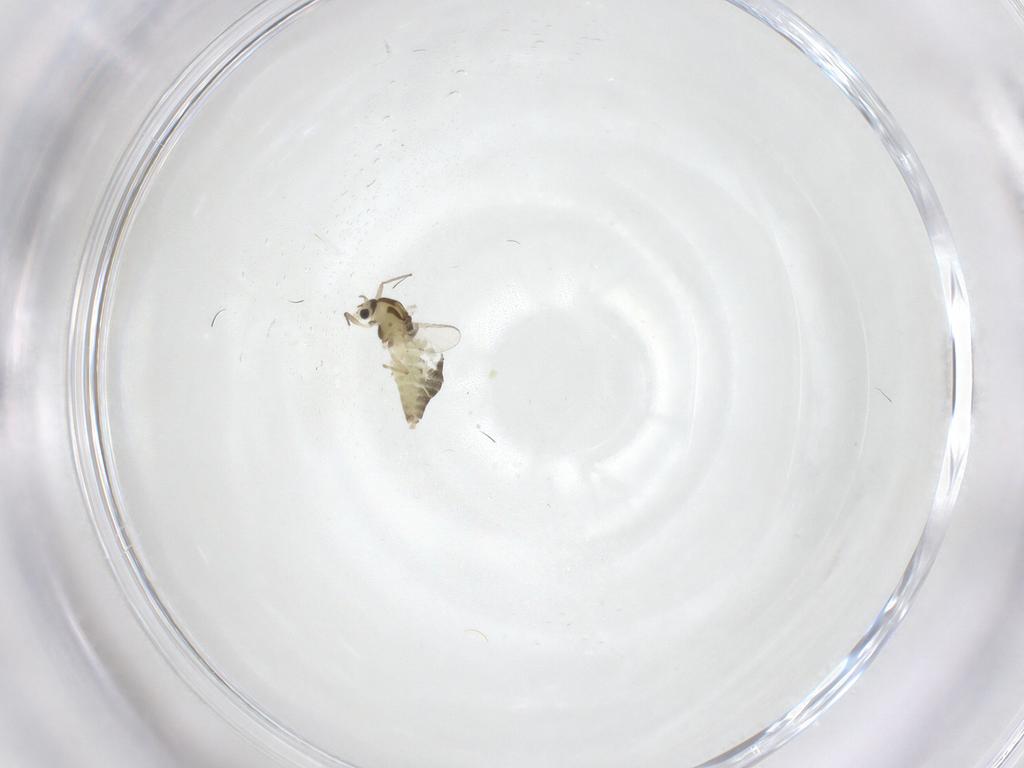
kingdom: Animalia
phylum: Arthropoda
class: Insecta
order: Diptera
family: Chironomidae
